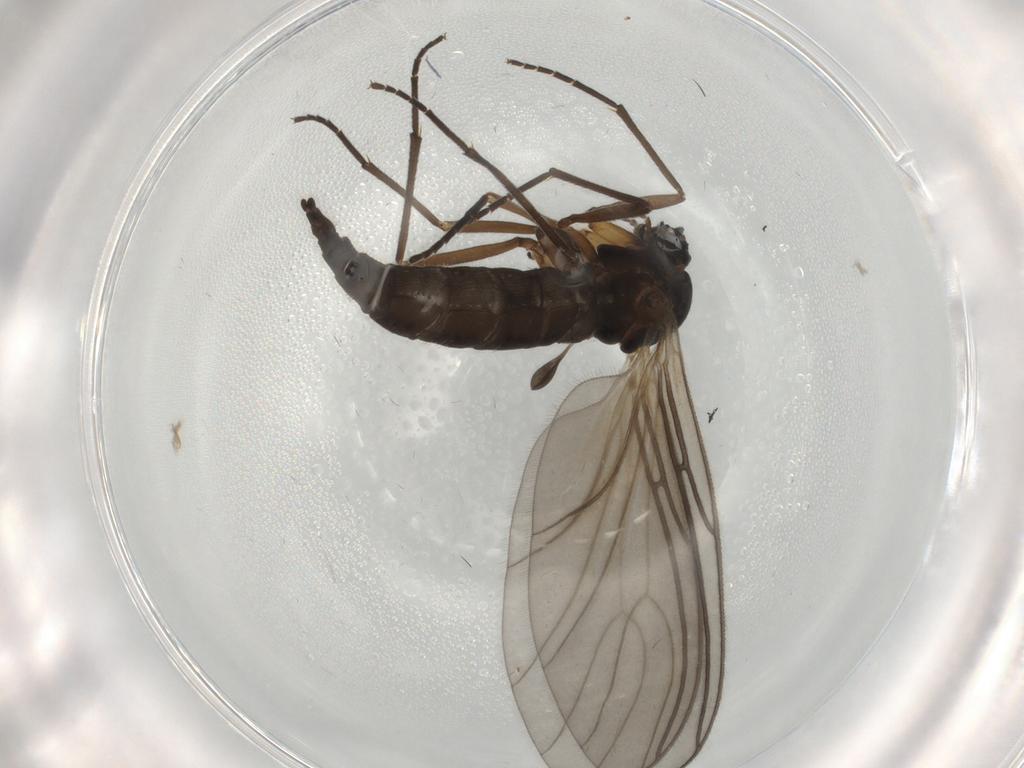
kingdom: Animalia
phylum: Arthropoda
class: Insecta
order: Diptera
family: Sciaridae
